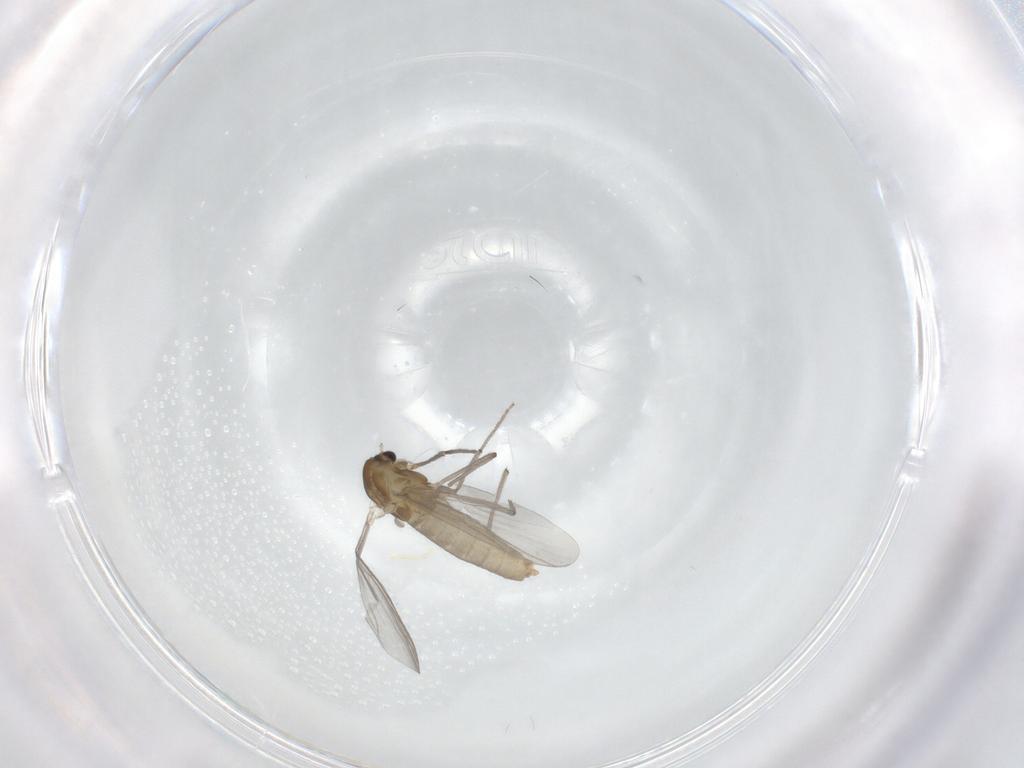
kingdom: Animalia
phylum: Arthropoda
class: Insecta
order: Diptera
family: Chironomidae
